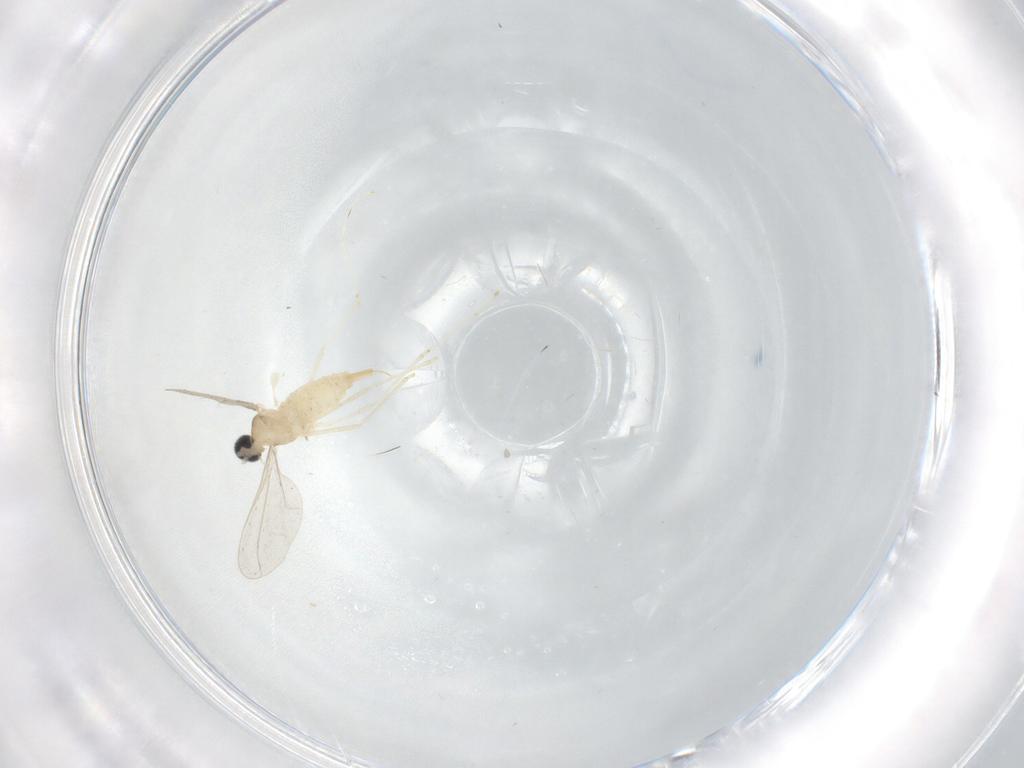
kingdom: Animalia
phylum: Arthropoda
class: Insecta
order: Diptera
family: Cecidomyiidae
